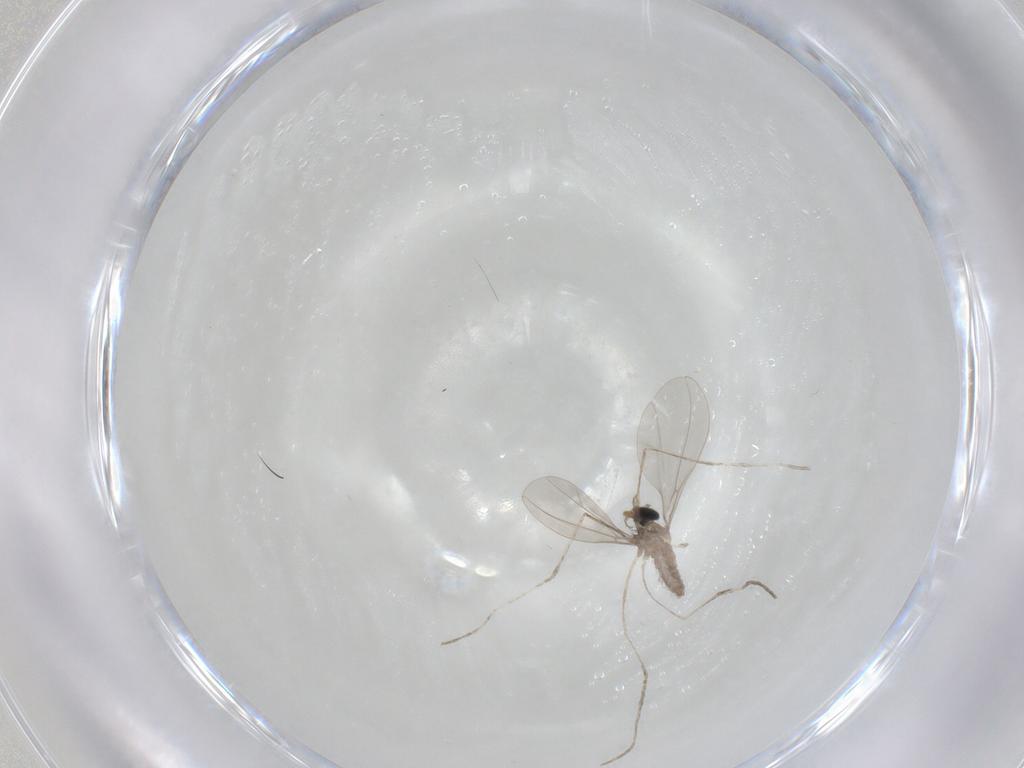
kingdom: Animalia
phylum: Arthropoda
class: Insecta
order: Diptera
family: Cecidomyiidae
